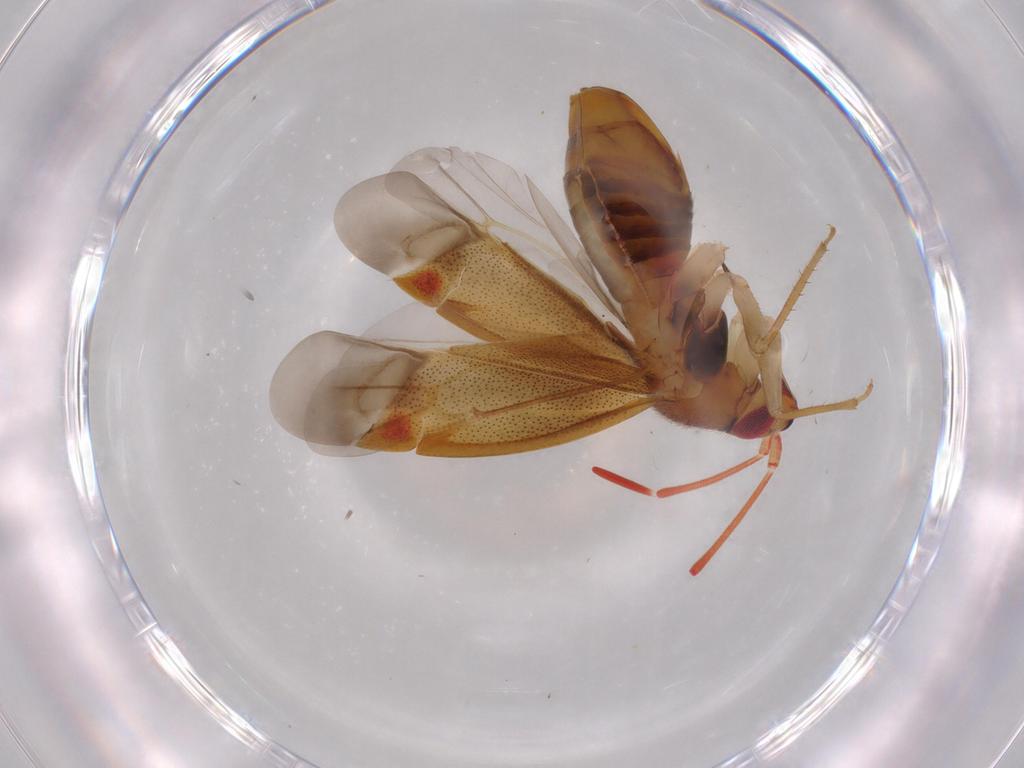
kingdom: Animalia
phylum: Arthropoda
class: Insecta
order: Hemiptera
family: Miridae
